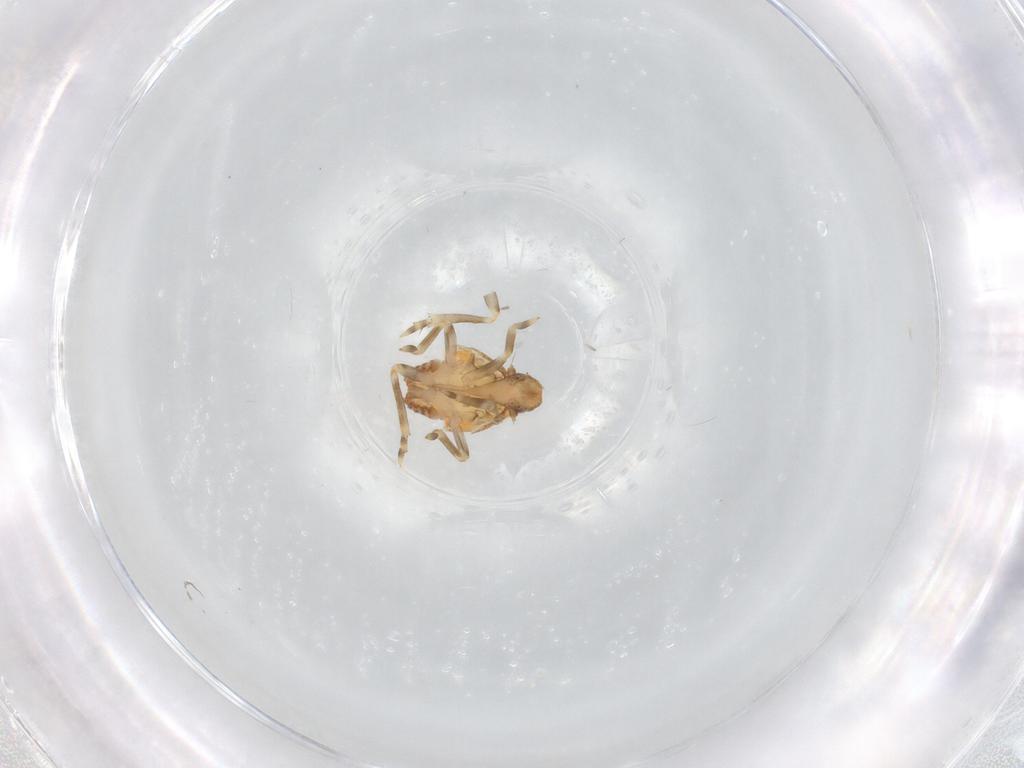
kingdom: Animalia
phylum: Arthropoda
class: Insecta
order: Hemiptera
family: Flatidae
